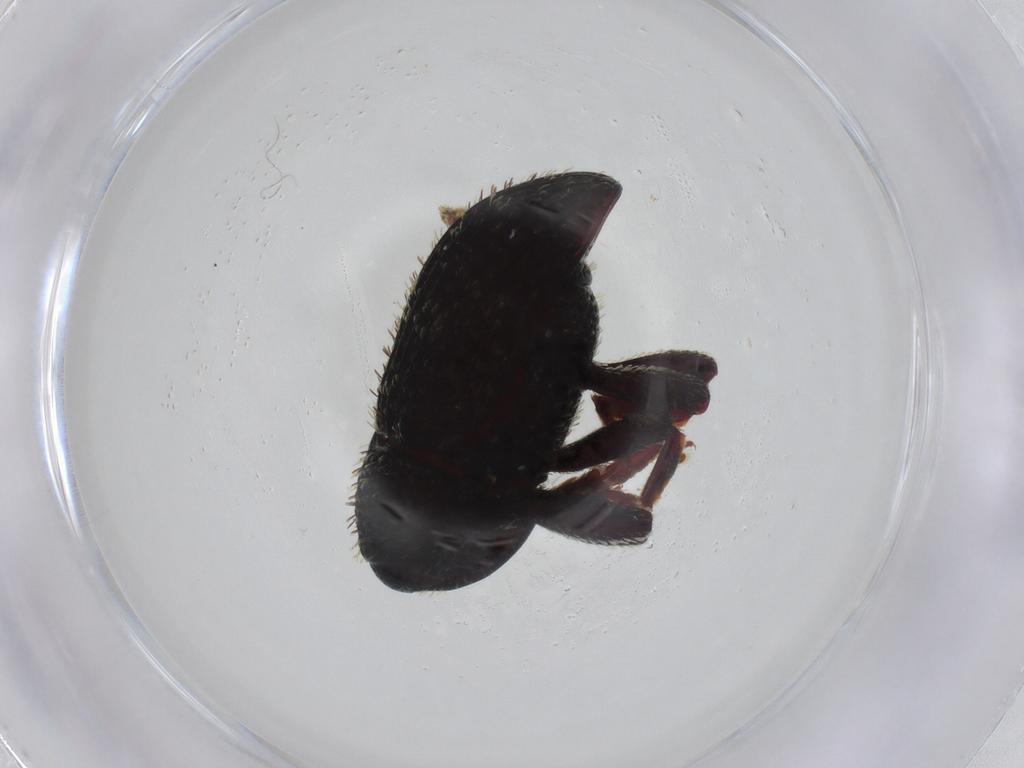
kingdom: Animalia
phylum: Arthropoda
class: Insecta
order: Coleoptera
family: Curculionidae
